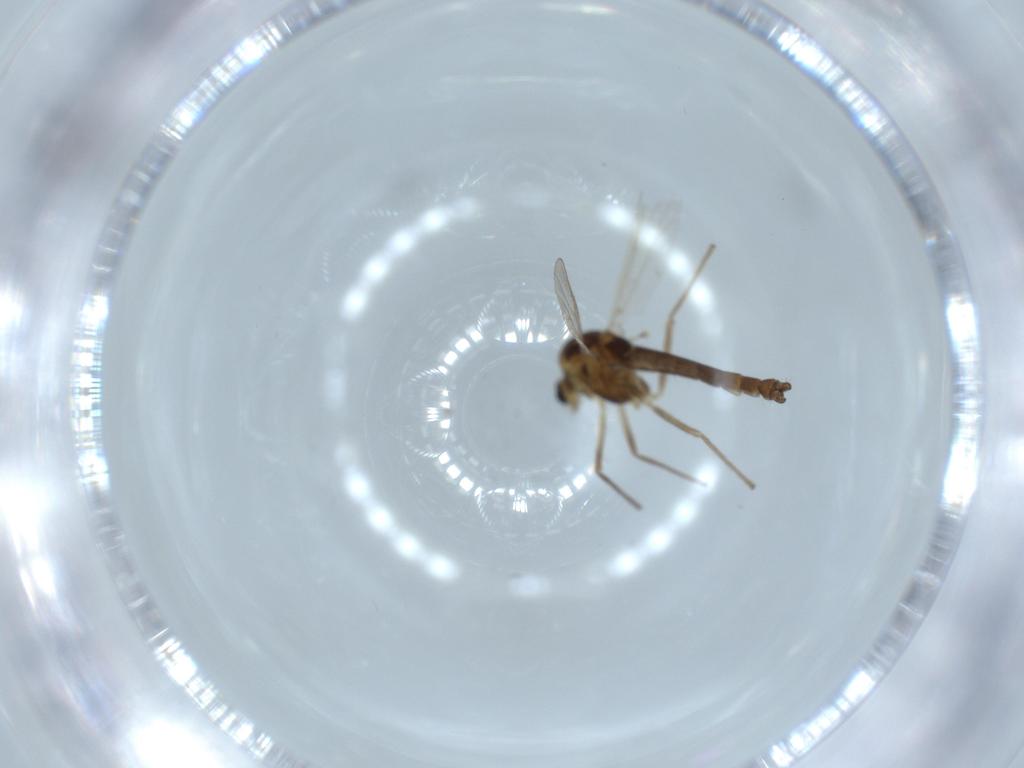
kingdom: Animalia
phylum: Arthropoda
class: Insecta
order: Diptera
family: Chironomidae
